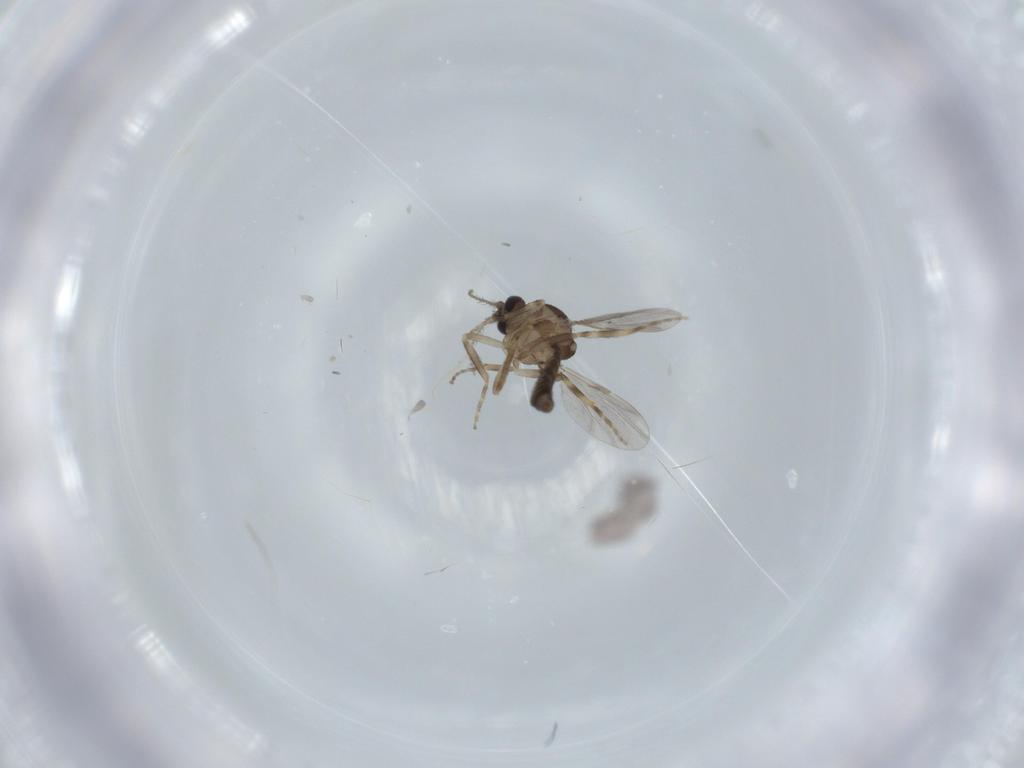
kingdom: Animalia
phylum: Arthropoda
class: Insecta
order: Diptera
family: Ceratopogonidae
